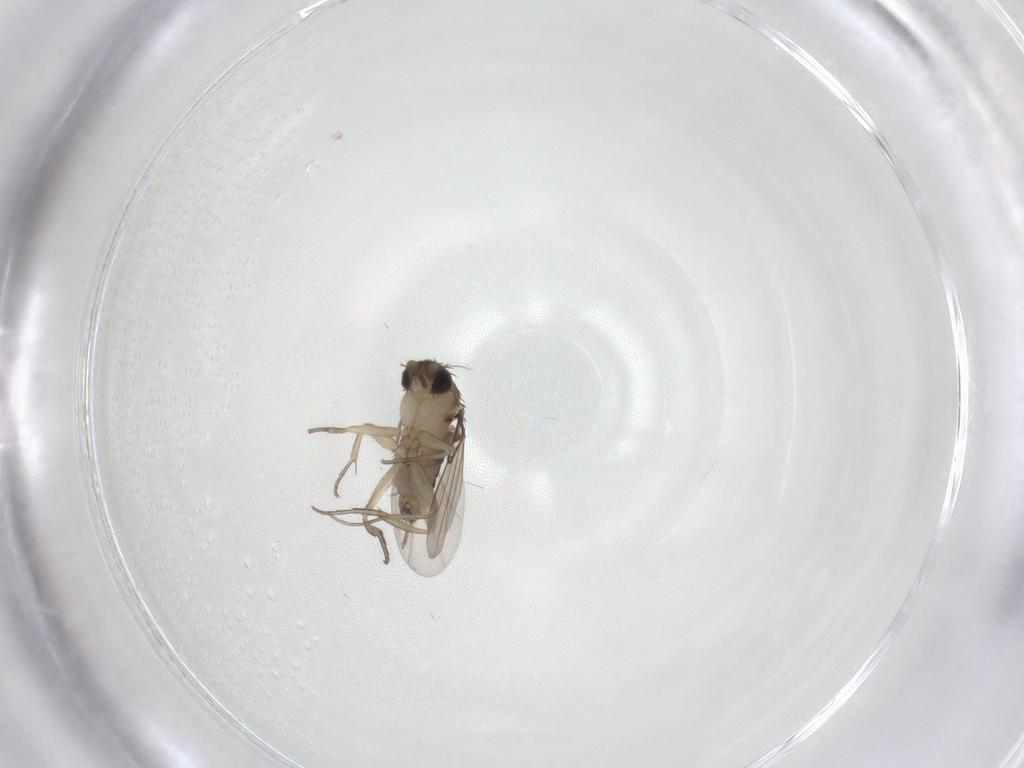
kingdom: Animalia
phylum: Arthropoda
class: Insecta
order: Diptera
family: Phoridae
